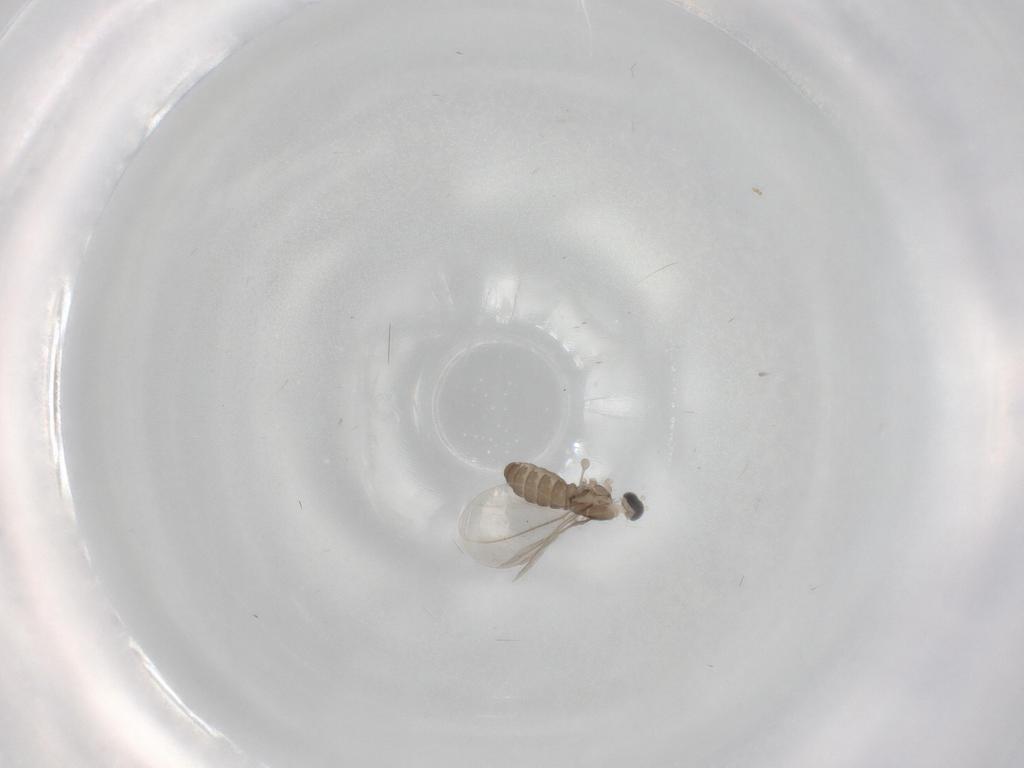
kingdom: Animalia
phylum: Arthropoda
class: Insecta
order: Diptera
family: Cecidomyiidae
